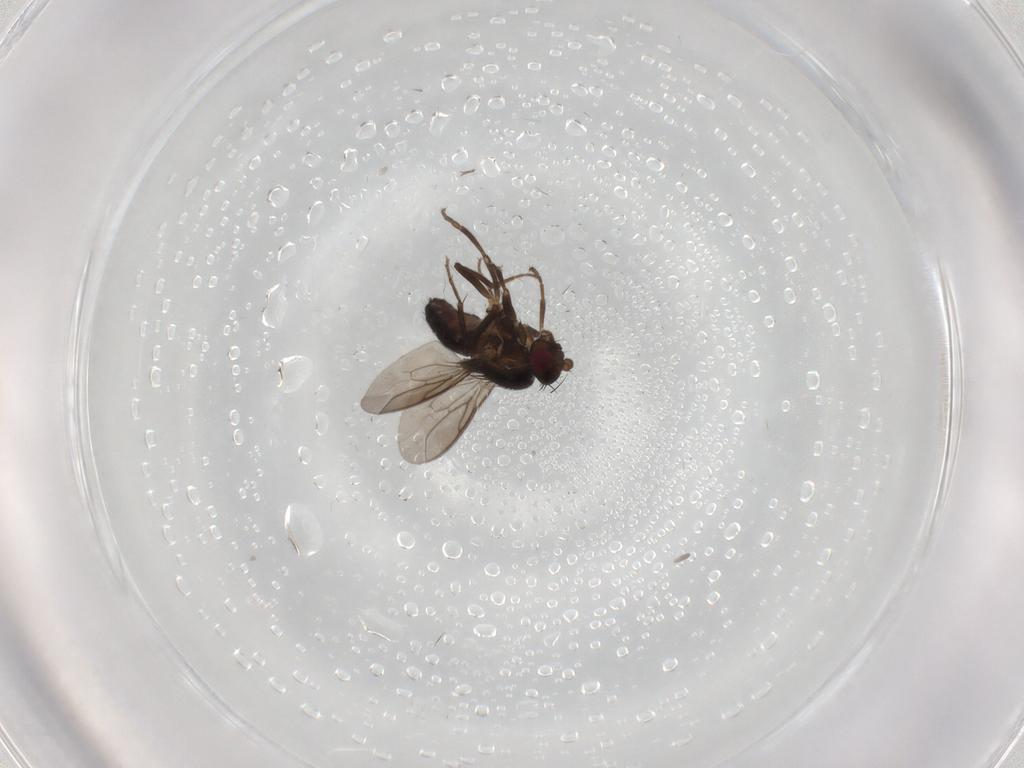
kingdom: Animalia
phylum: Arthropoda
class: Insecta
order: Diptera
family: Sphaeroceridae
